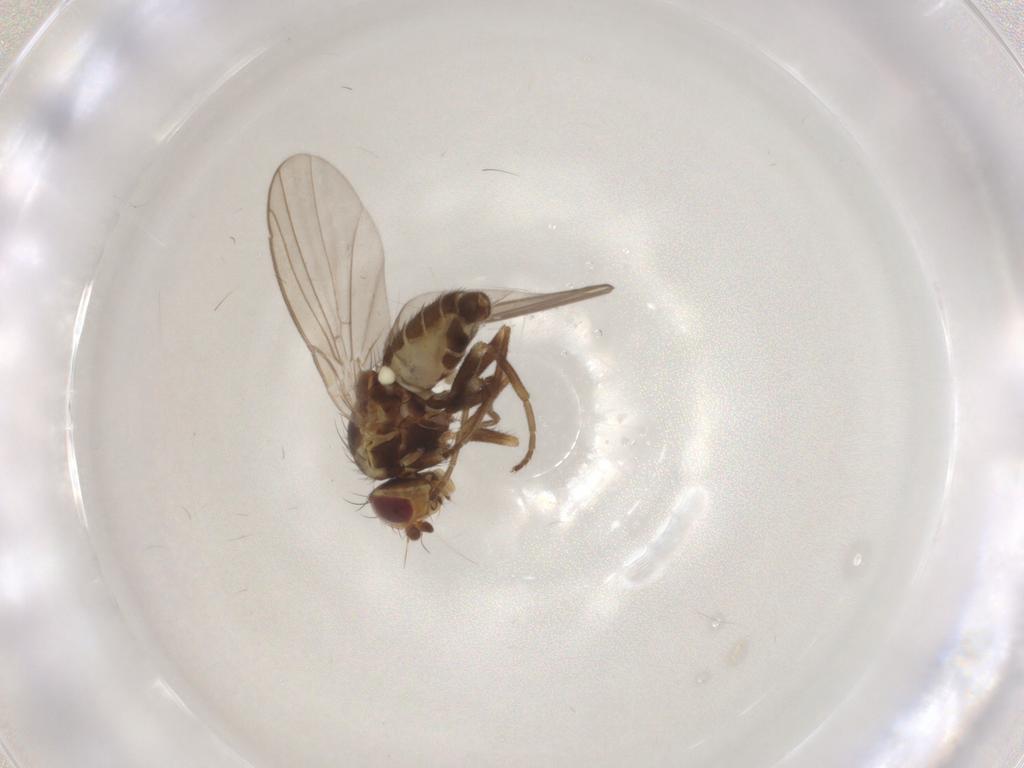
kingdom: Animalia
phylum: Arthropoda
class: Insecta
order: Diptera
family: Agromyzidae
